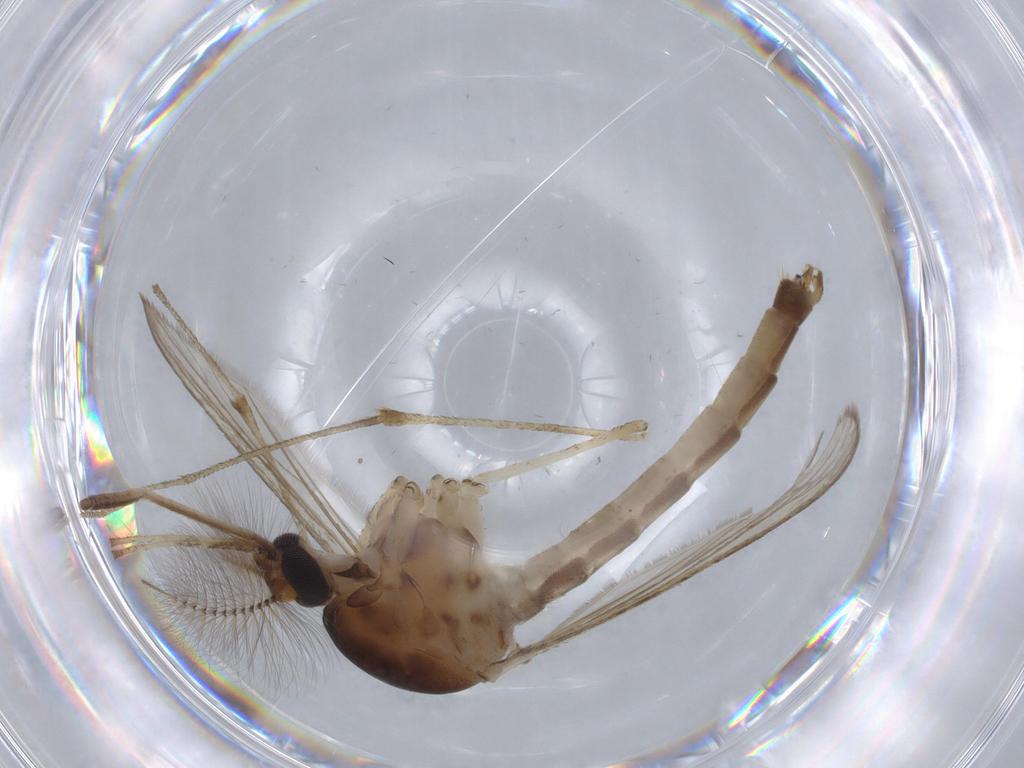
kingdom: Animalia
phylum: Arthropoda
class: Insecta
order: Diptera
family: Culicidae
